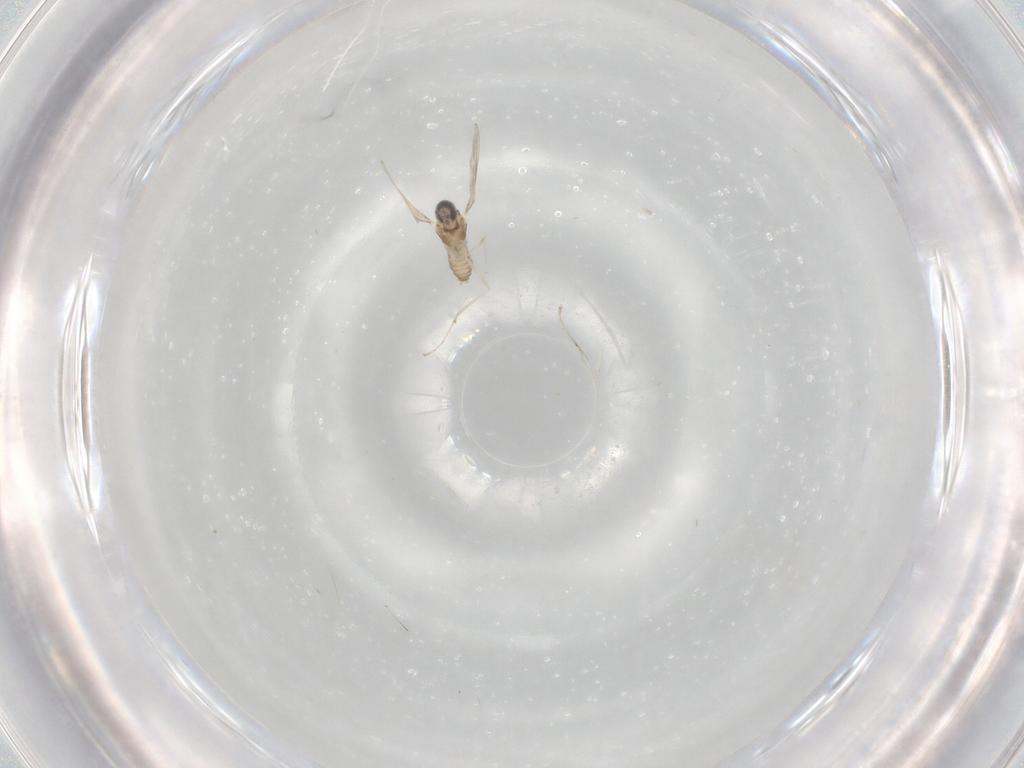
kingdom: Animalia
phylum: Arthropoda
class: Insecta
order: Diptera
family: Cecidomyiidae
